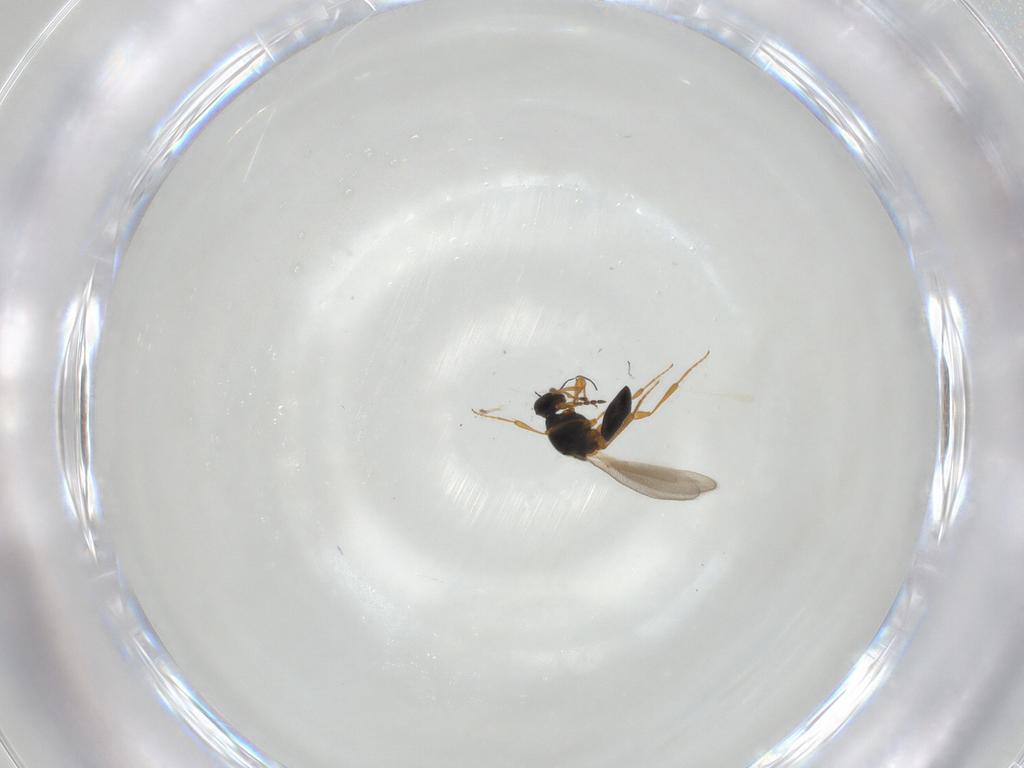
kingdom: Animalia
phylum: Arthropoda
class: Insecta
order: Hymenoptera
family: Platygastridae
